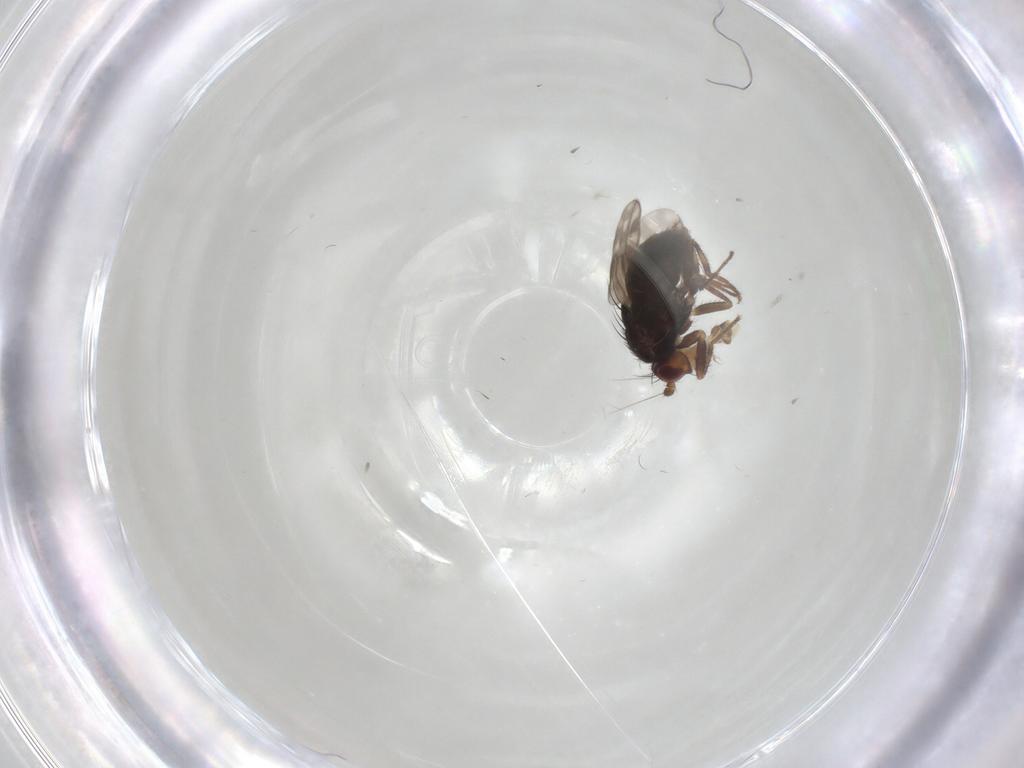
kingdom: Animalia
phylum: Arthropoda
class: Insecta
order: Diptera
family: Sphaeroceridae
